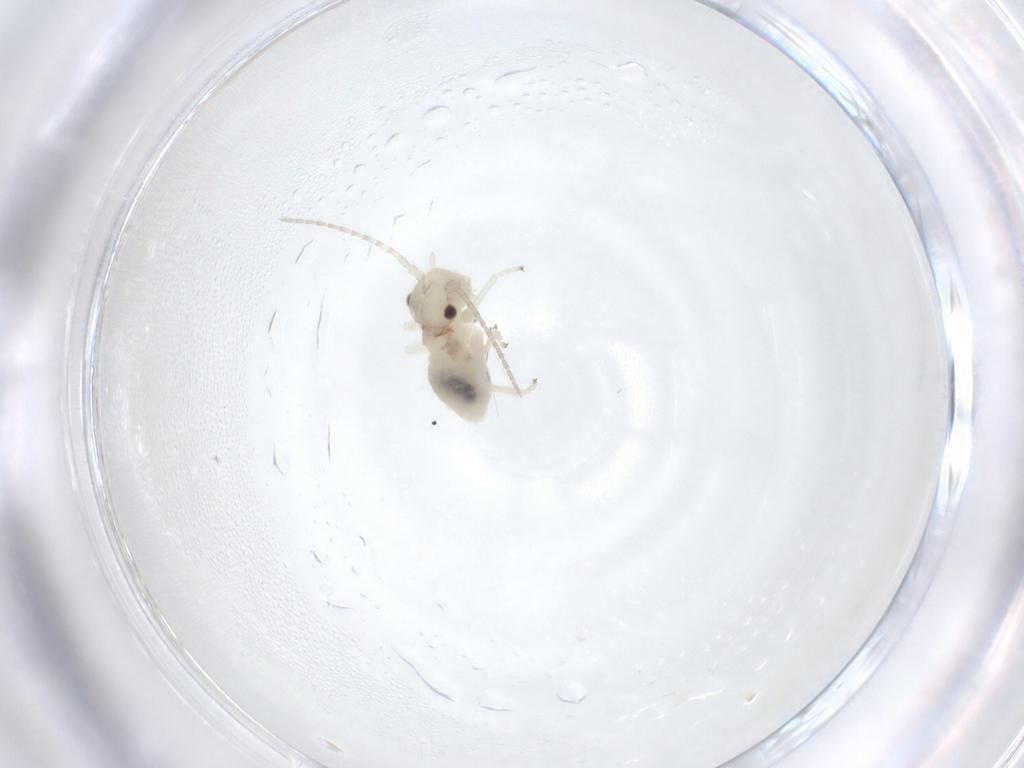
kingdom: Animalia
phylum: Arthropoda
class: Insecta
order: Psocodea
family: Amphipsocidae
